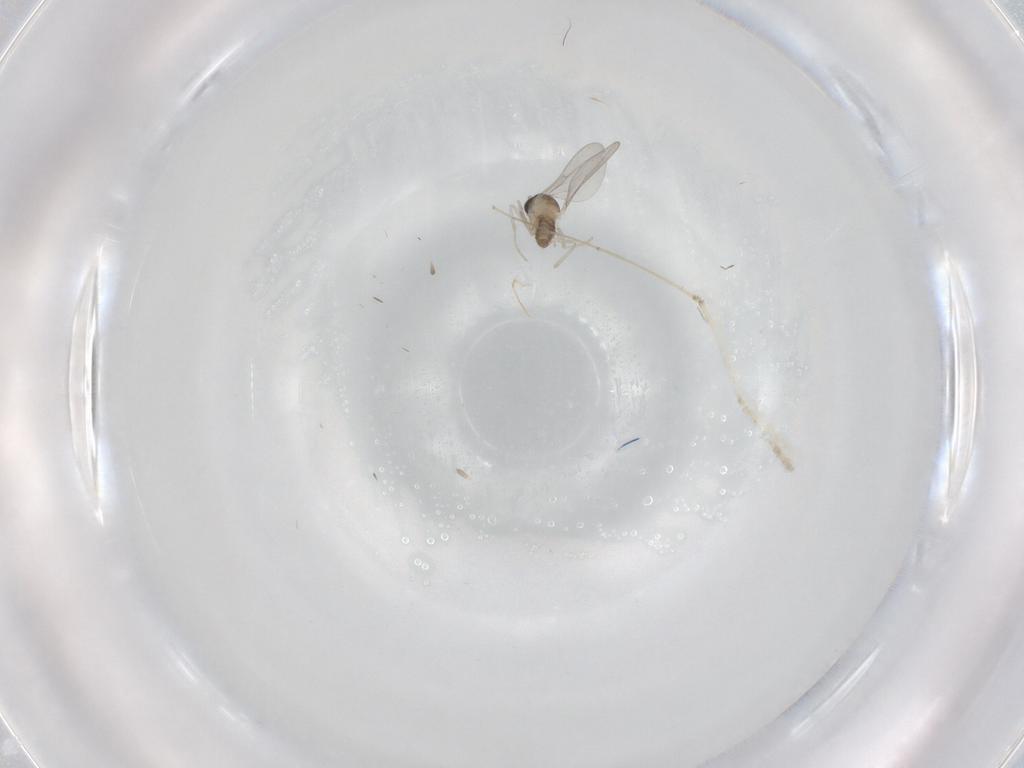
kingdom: Animalia
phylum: Arthropoda
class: Insecta
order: Diptera
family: Cecidomyiidae
